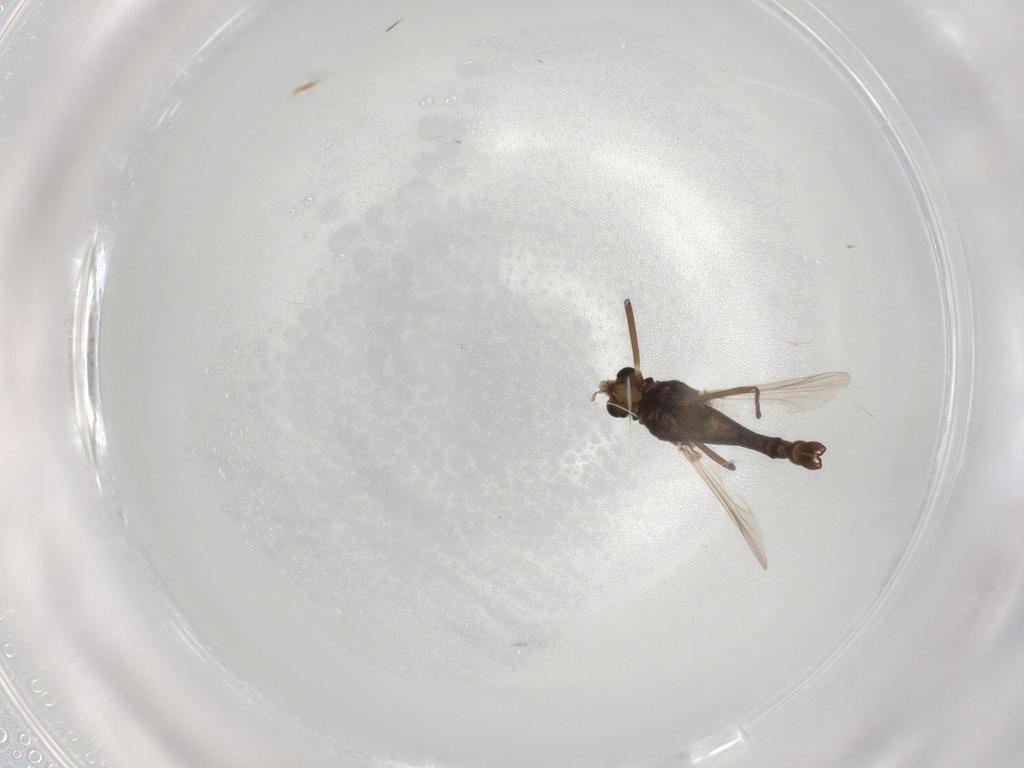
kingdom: Animalia
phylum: Arthropoda
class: Insecta
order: Diptera
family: Chironomidae
